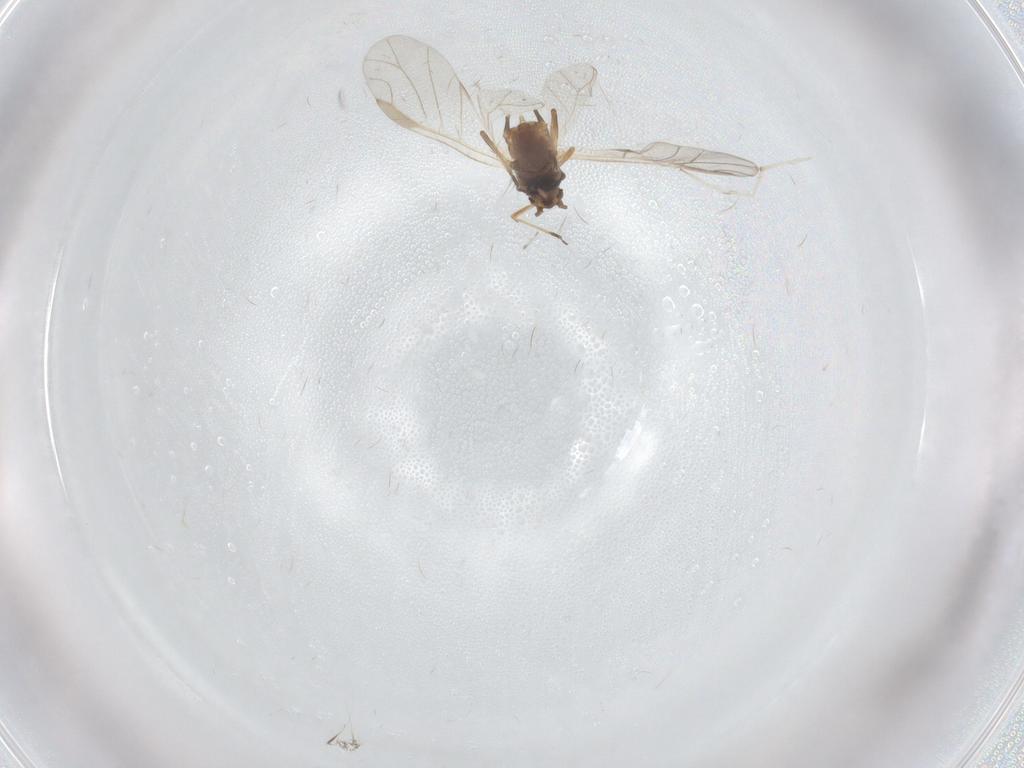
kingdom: Animalia
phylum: Arthropoda
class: Insecta
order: Hemiptera
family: Aphididae
